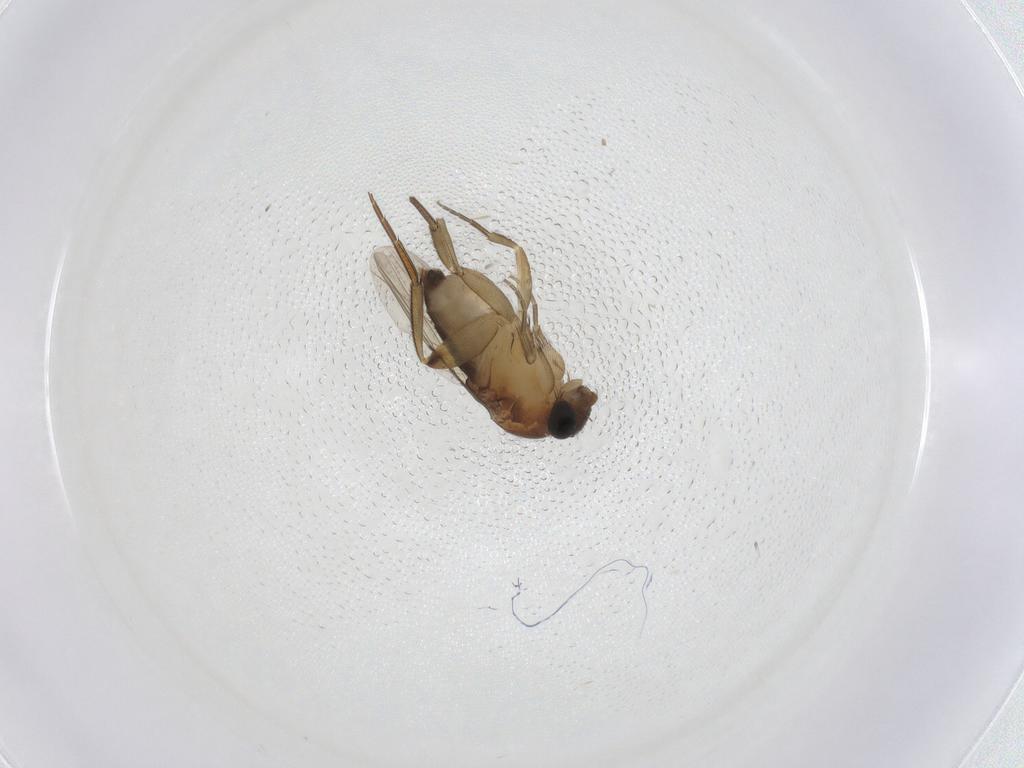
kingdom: Animalia
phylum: Arthropoda
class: Insecta
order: Diptera
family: Phoridae
